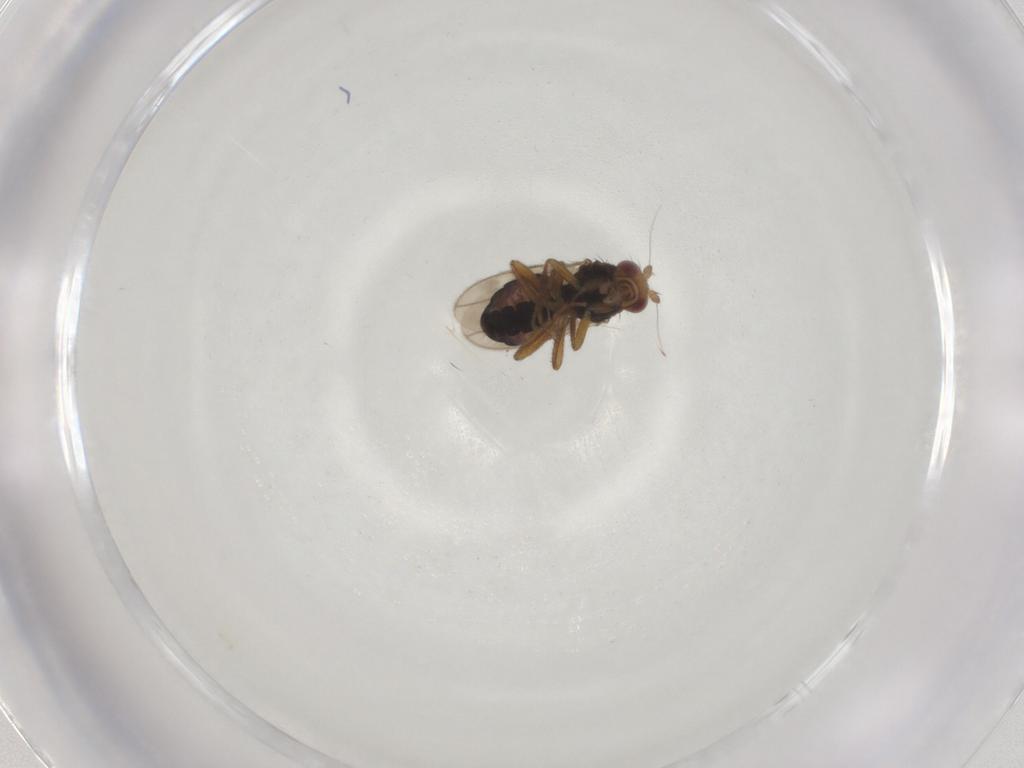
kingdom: Animalia
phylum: Arthropoda
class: Insecta
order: Diptera
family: Sphaeroceridae
